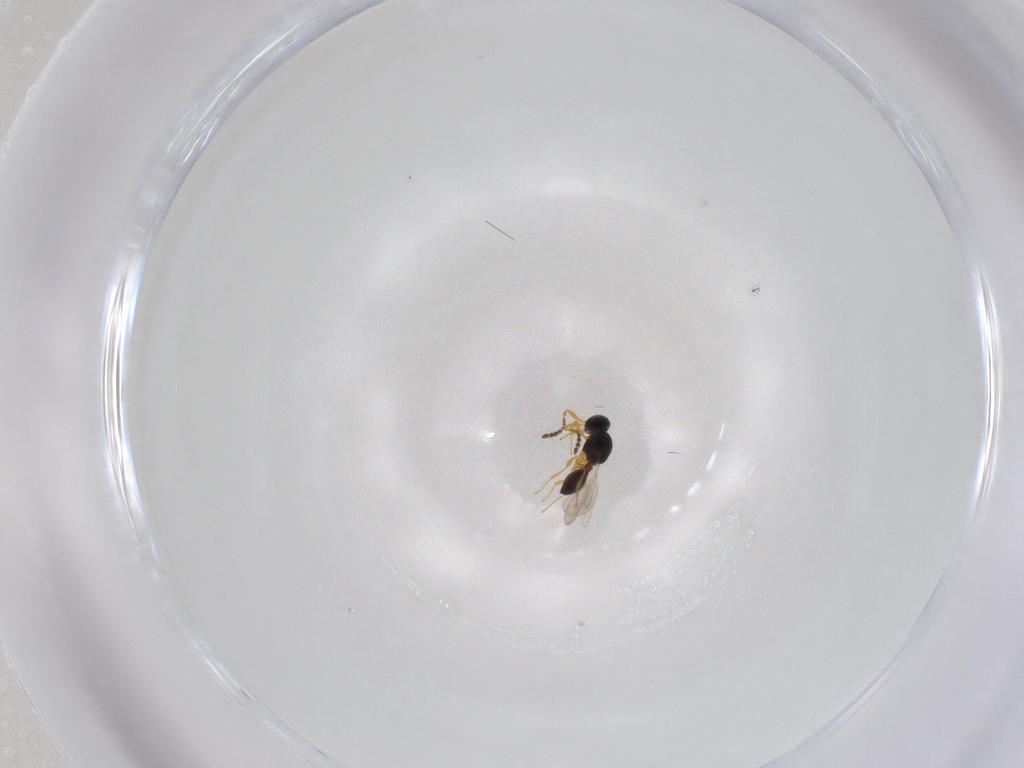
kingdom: Animalia
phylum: Arthropoda
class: Insecta
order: Hymenoptera
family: Platygastridae
